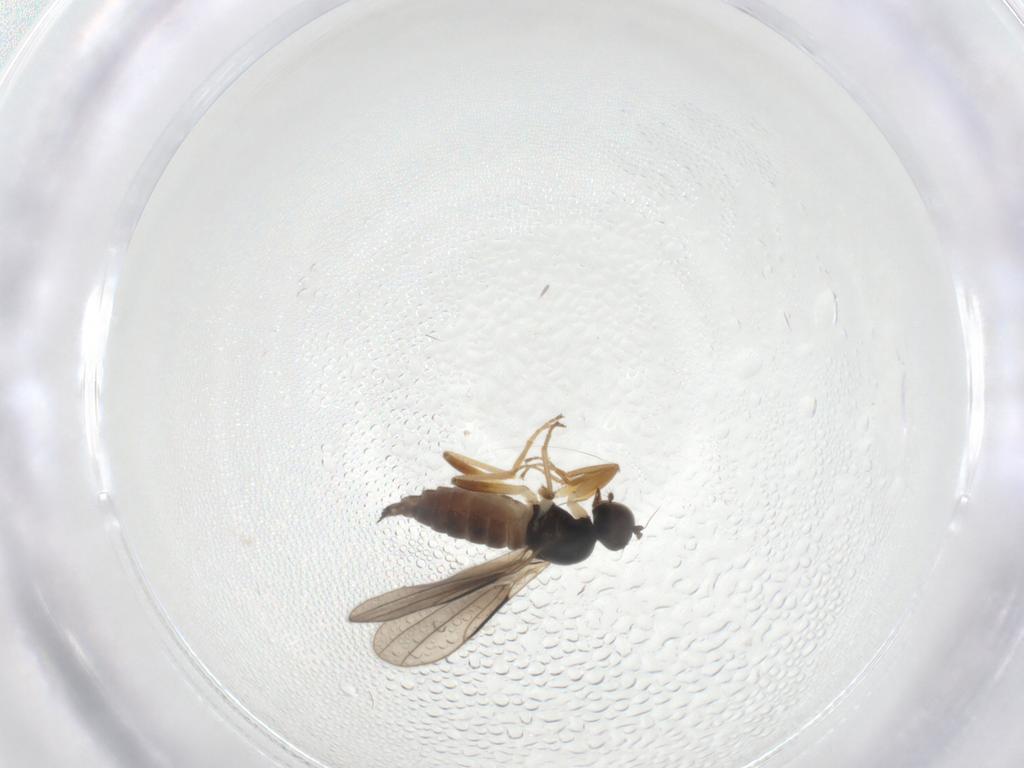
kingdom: Animalia
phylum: Arthropoda
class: Insecta
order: Diptera
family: Hybotidae
